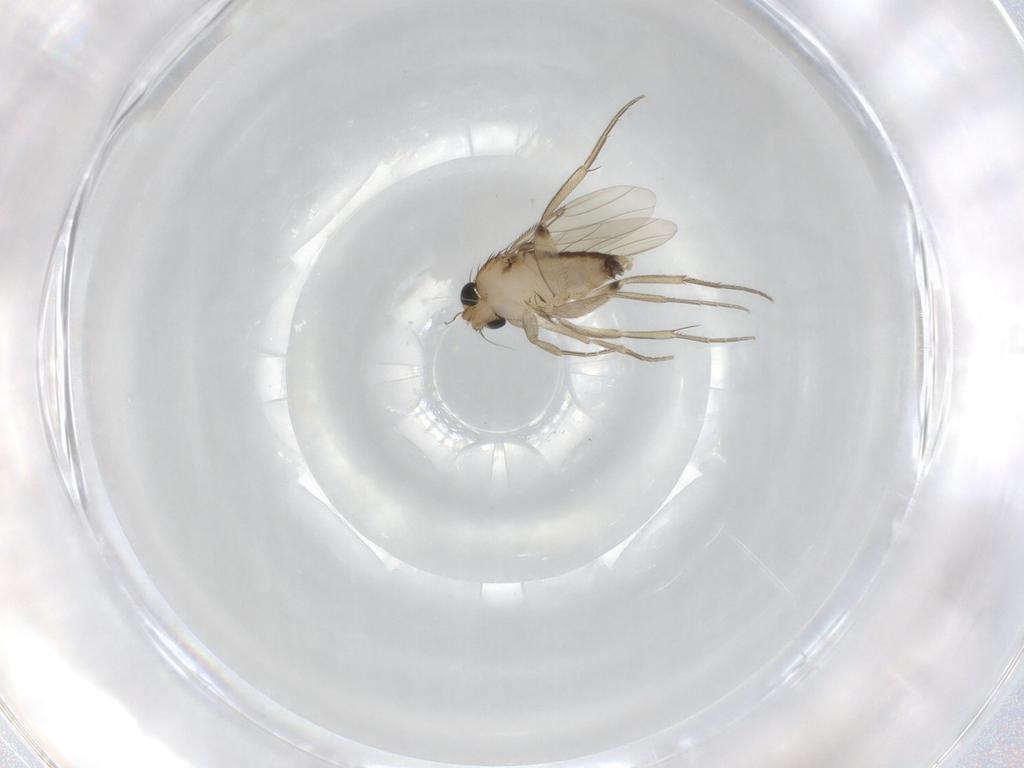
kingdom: Animalia
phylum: Arthropoda
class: Insecta
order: Diptera
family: Phoridae
